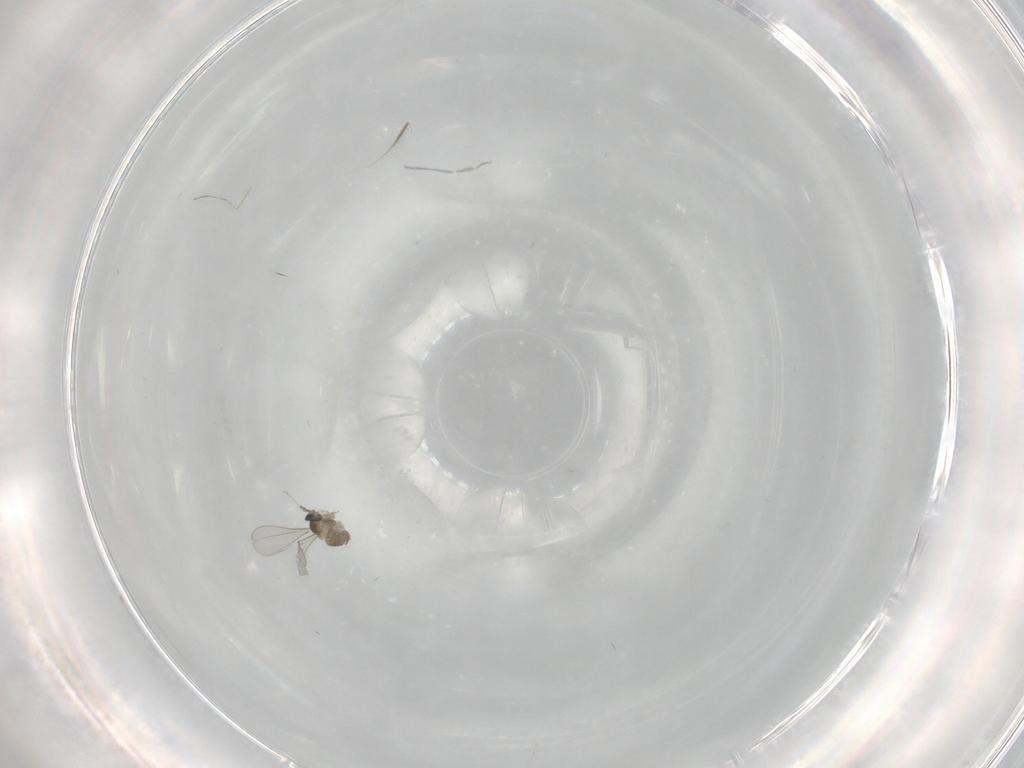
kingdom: Animalia
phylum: Arthropoda
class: Insecta
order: Diptera
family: Cecidomyiidae
